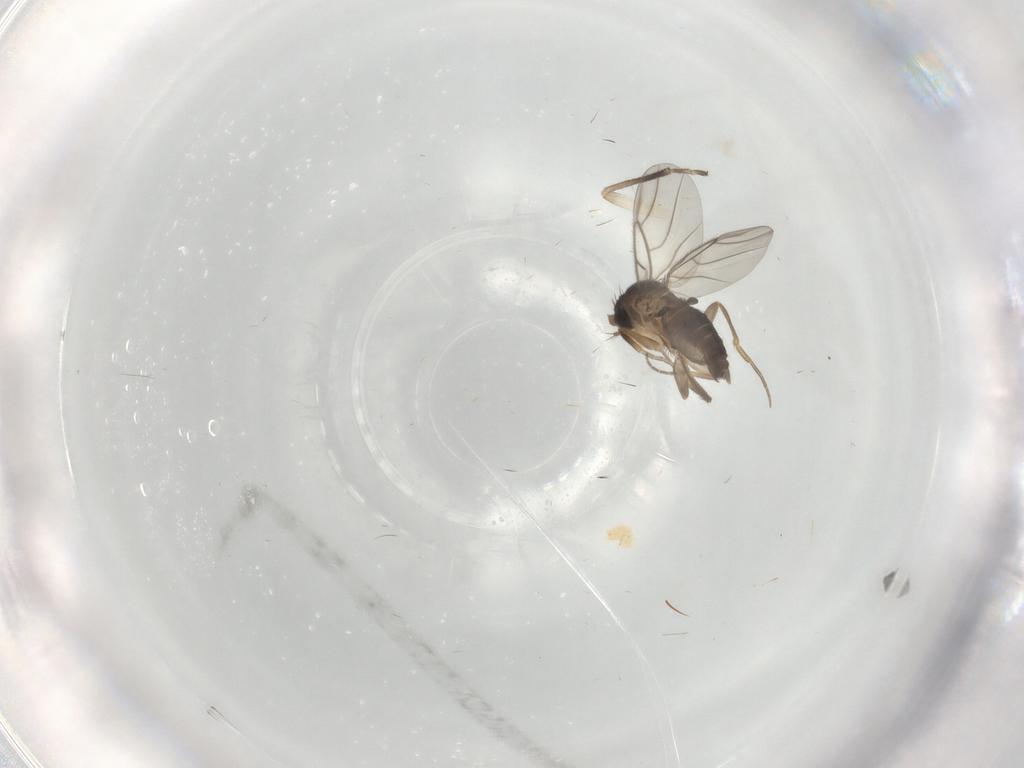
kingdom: Animalia
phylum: Arthropoda
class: Insecta
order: Diptera
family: Phoridae
